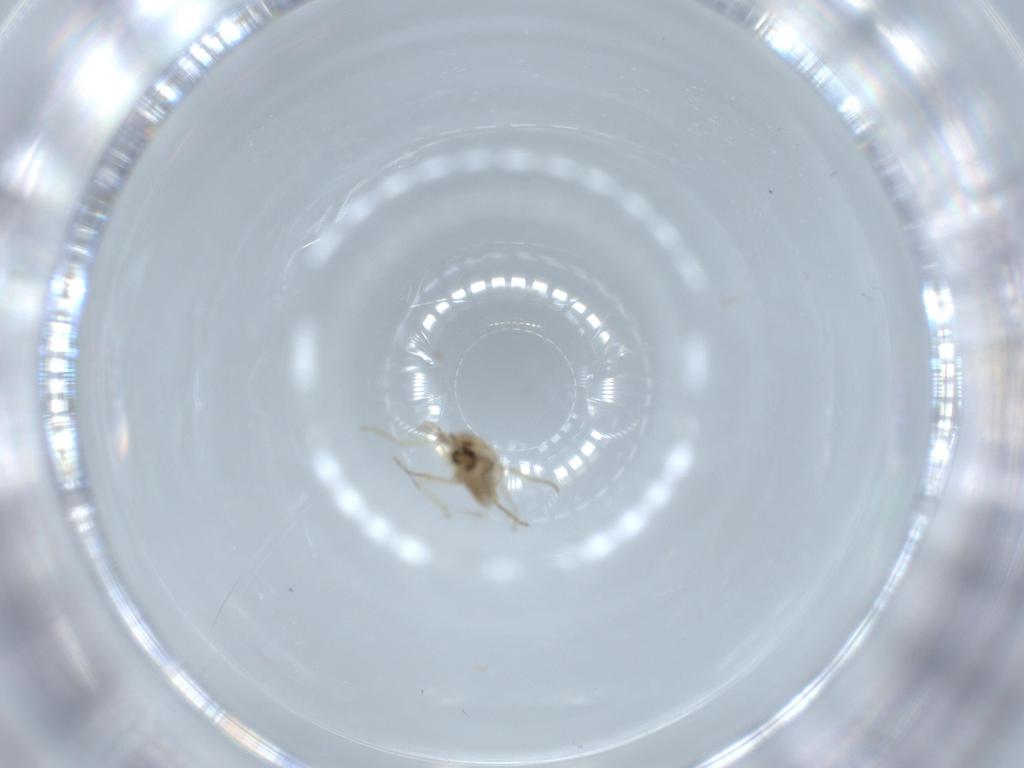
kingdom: Animalia
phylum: Arthropoda
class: Insecta
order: Diptera
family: Ceratopogonidae
